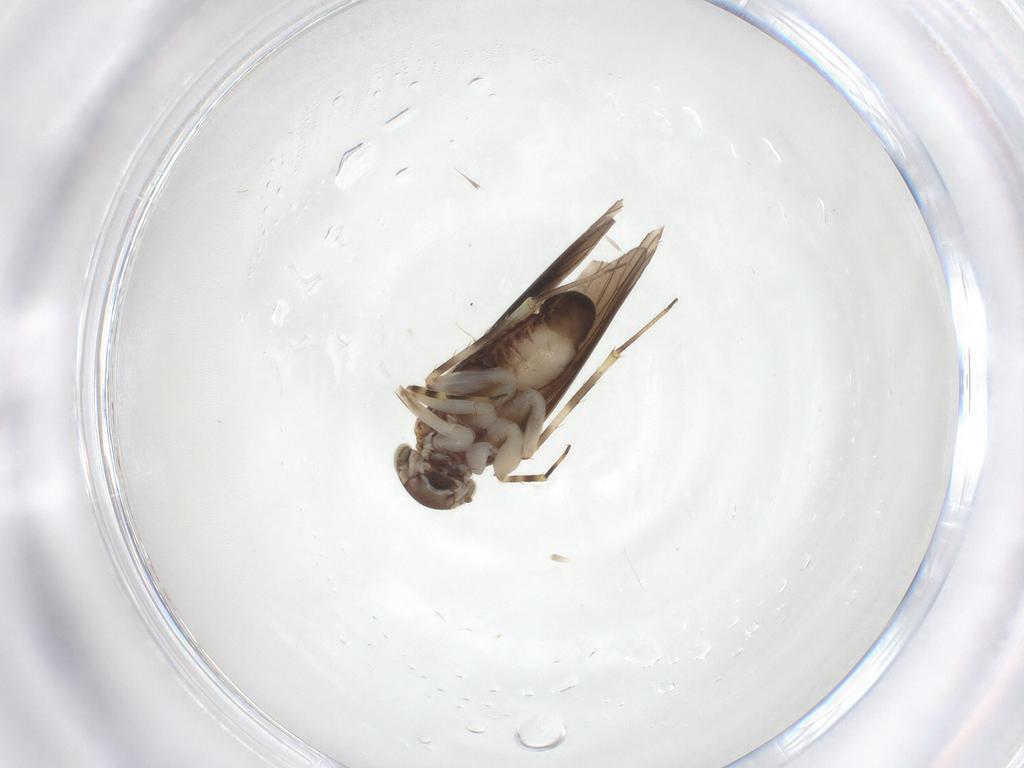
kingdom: Animalia
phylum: Arthropoda
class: Insecta
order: Psocodea
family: Amphientomidae
